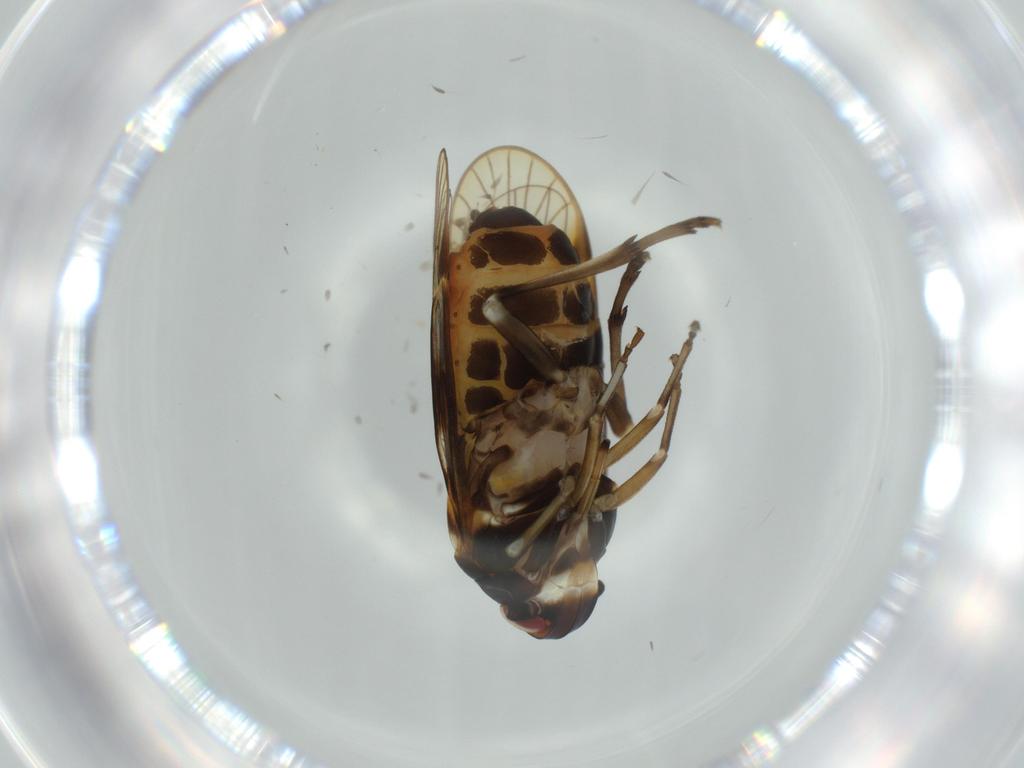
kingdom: Animalia
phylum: Arthropoda
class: Insecta
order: Hemiptera
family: Kinnaridae
